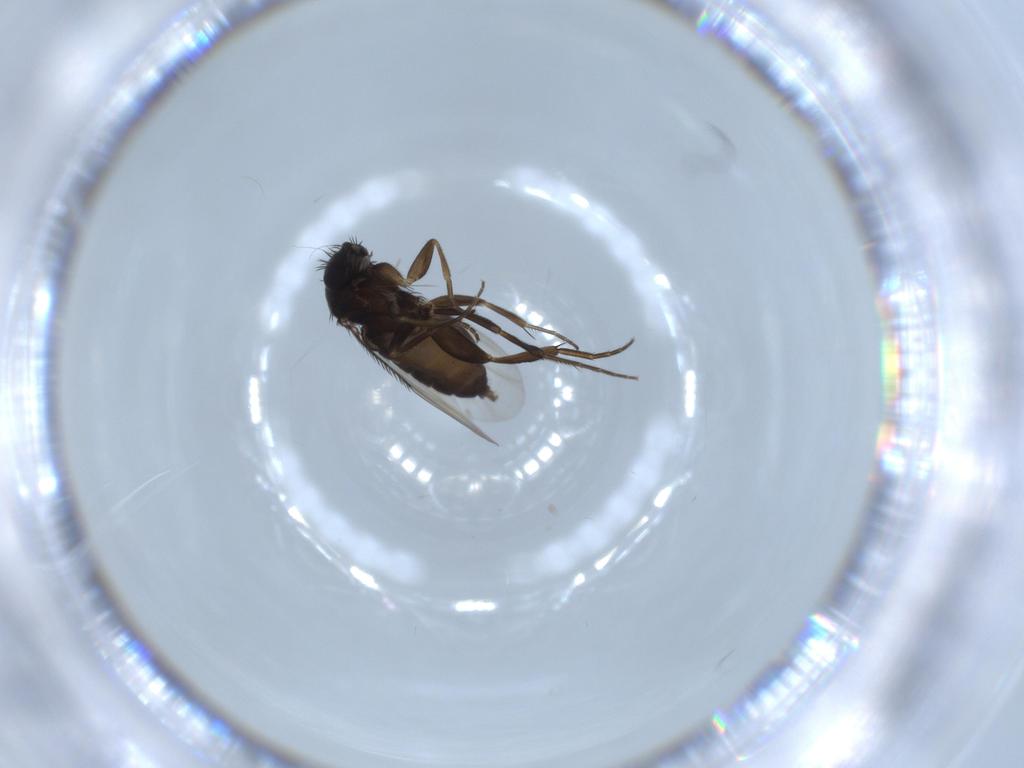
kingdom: Animalia
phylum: Arthropoda
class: Insecta
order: Diptera
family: Phoridae
